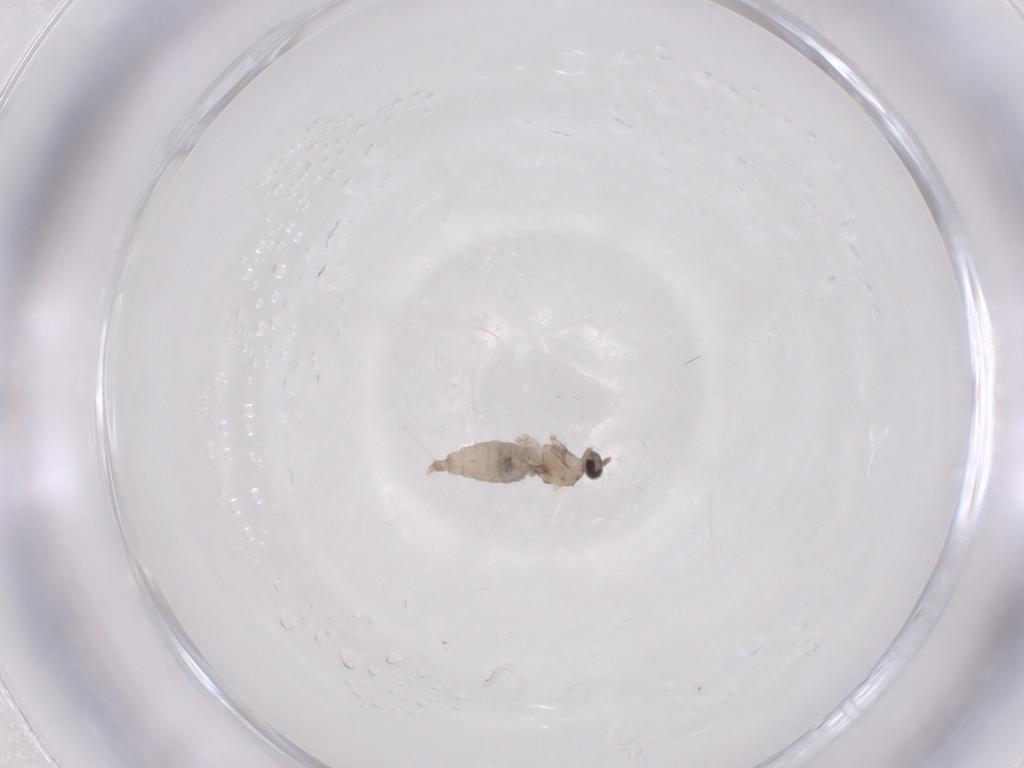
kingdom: Animalia
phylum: Arthropoda
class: Insecta
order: Diptera
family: Cecidomyiidae
